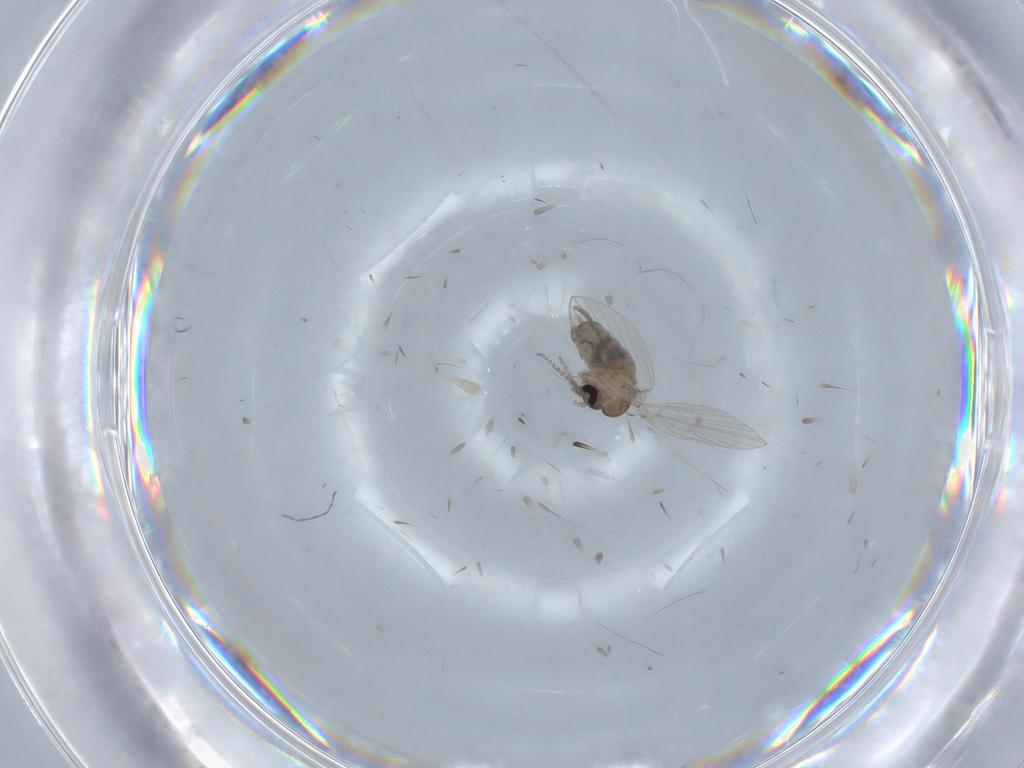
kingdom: Animalia
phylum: Arthropoda
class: Insecta
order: Diptera
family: Psychodidae
